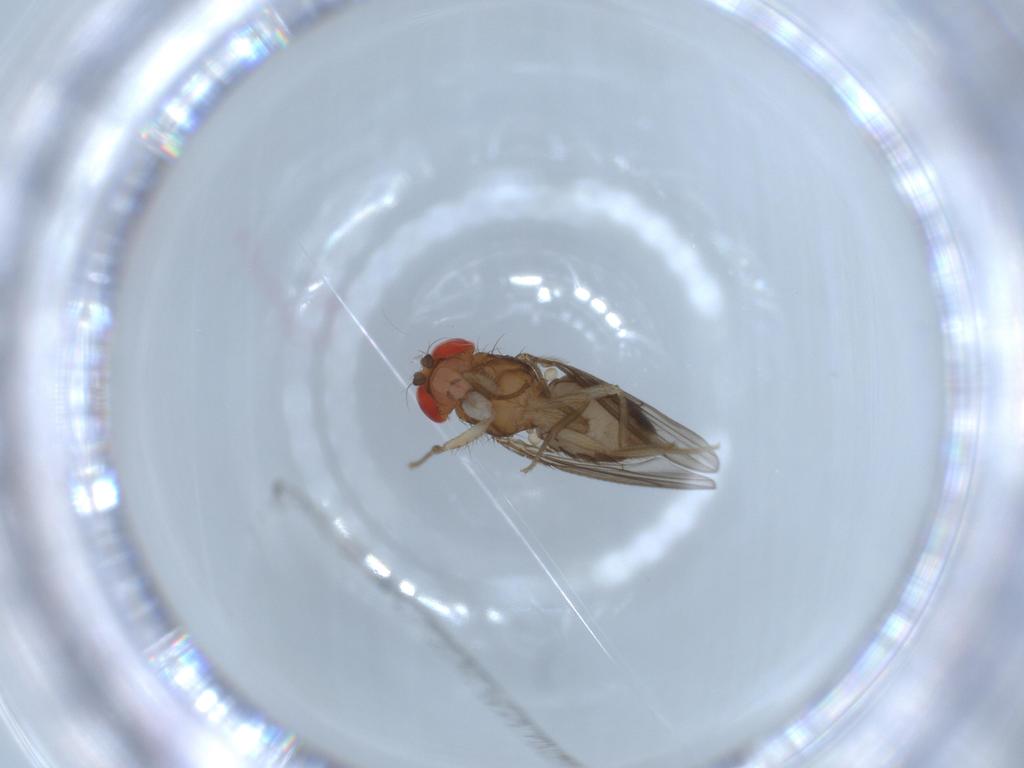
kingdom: Animalia
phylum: Arthropoda
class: Insecta
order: Diptera
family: Drosophilidae
